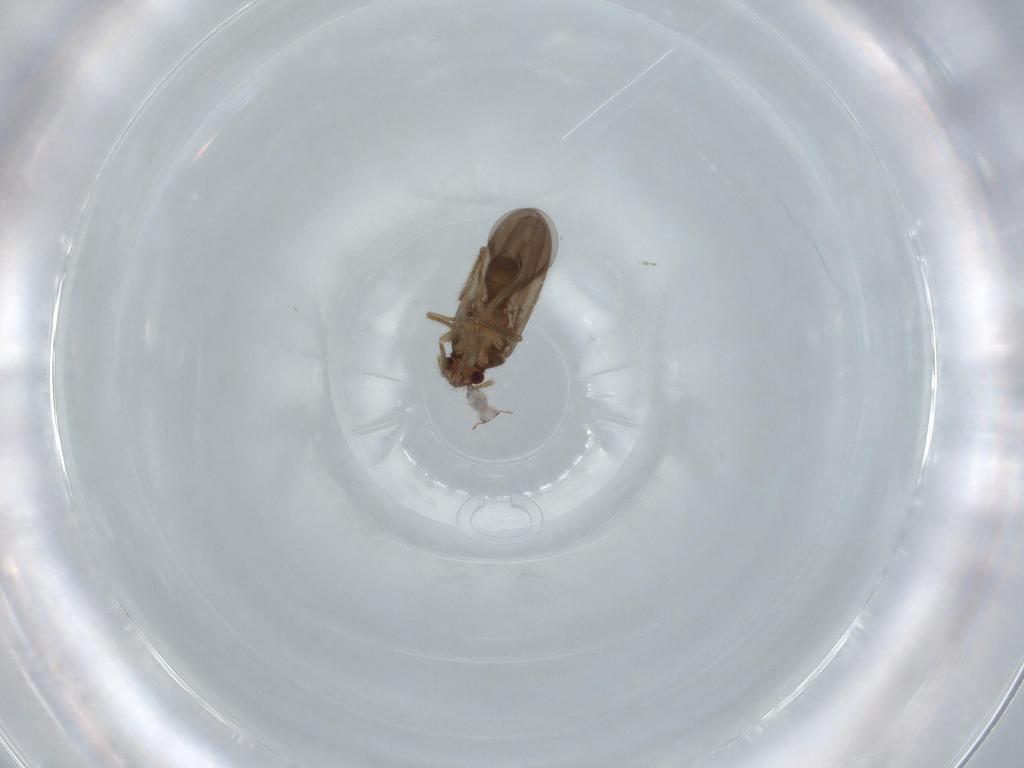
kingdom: Animalia
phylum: Arthropoda
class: Insecta
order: Hemiptera
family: Ceratocombidae
